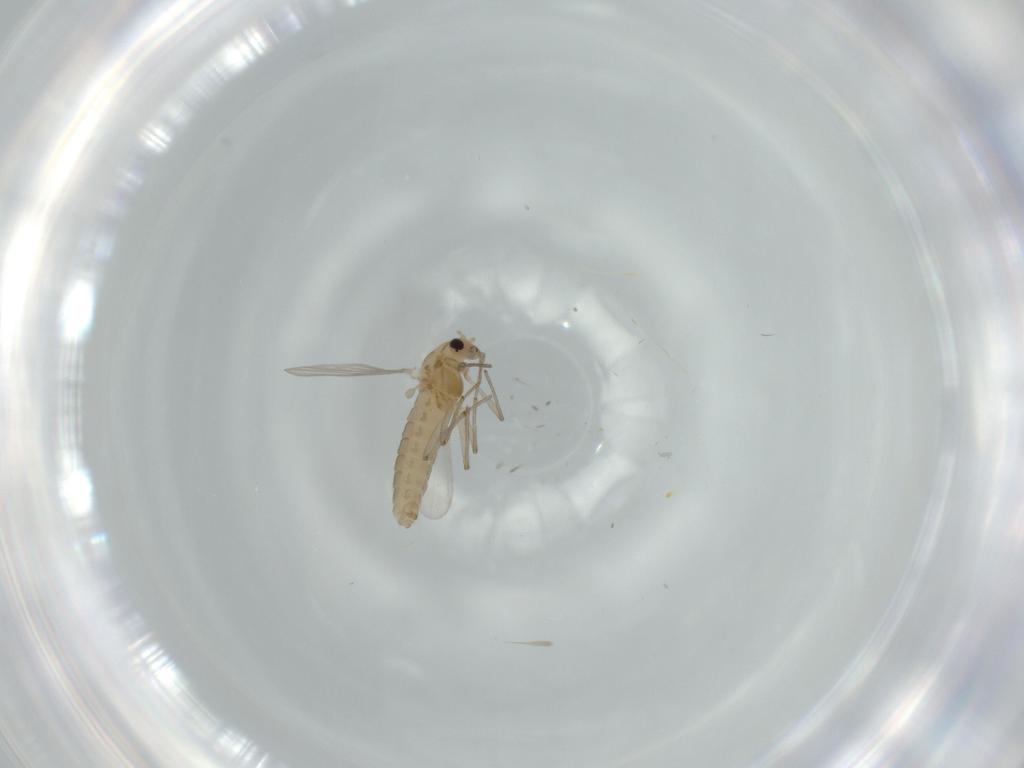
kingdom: Animalia
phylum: Arthropoda
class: Insecta
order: Diptera
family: Chironomidae
